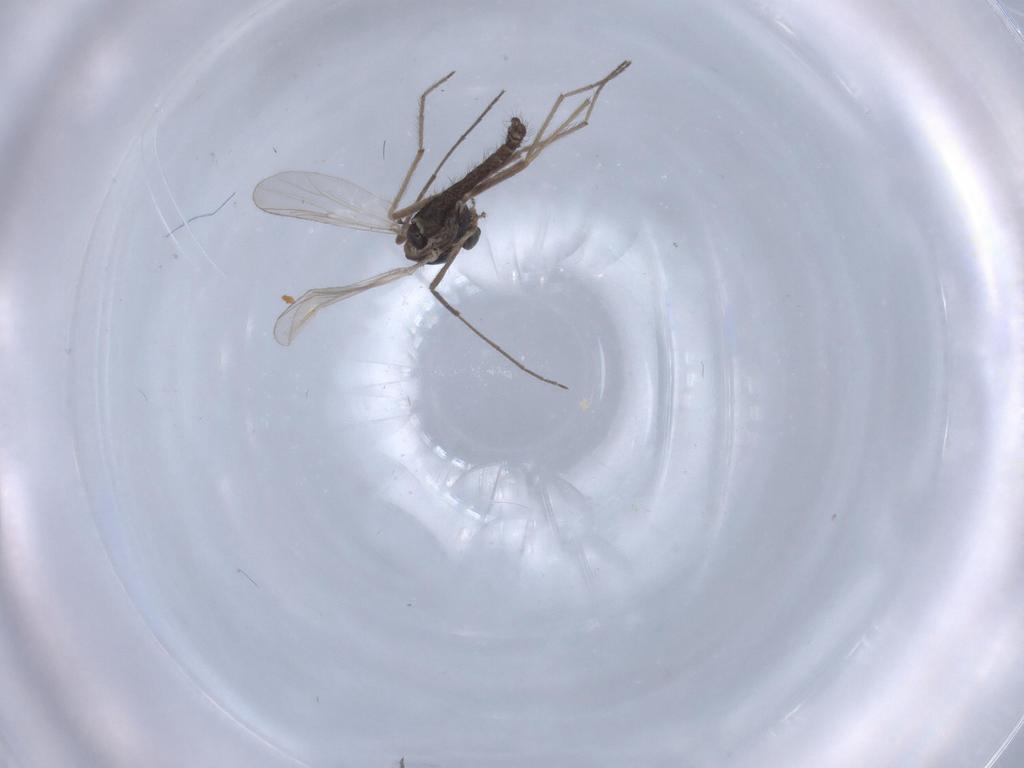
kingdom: Animalia
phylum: Arthropoda
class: Insecta
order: Diptera
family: Chironomidae
